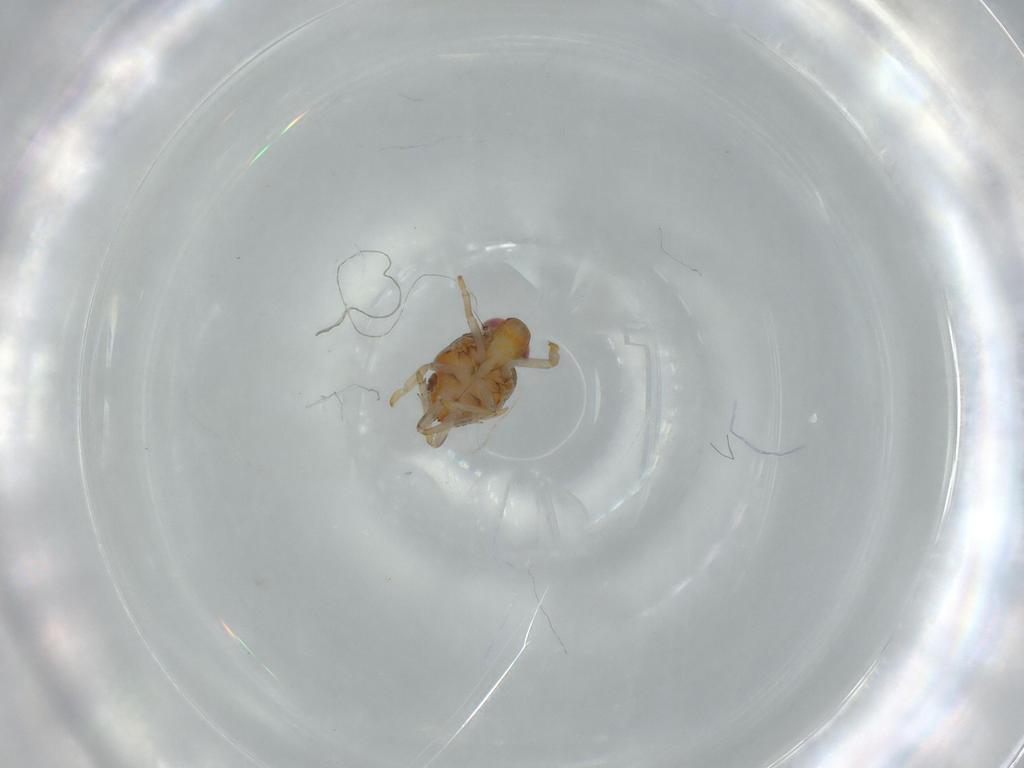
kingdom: Animalia
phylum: Arthropoda
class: Insecta
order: Hemiptera
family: Issidae
